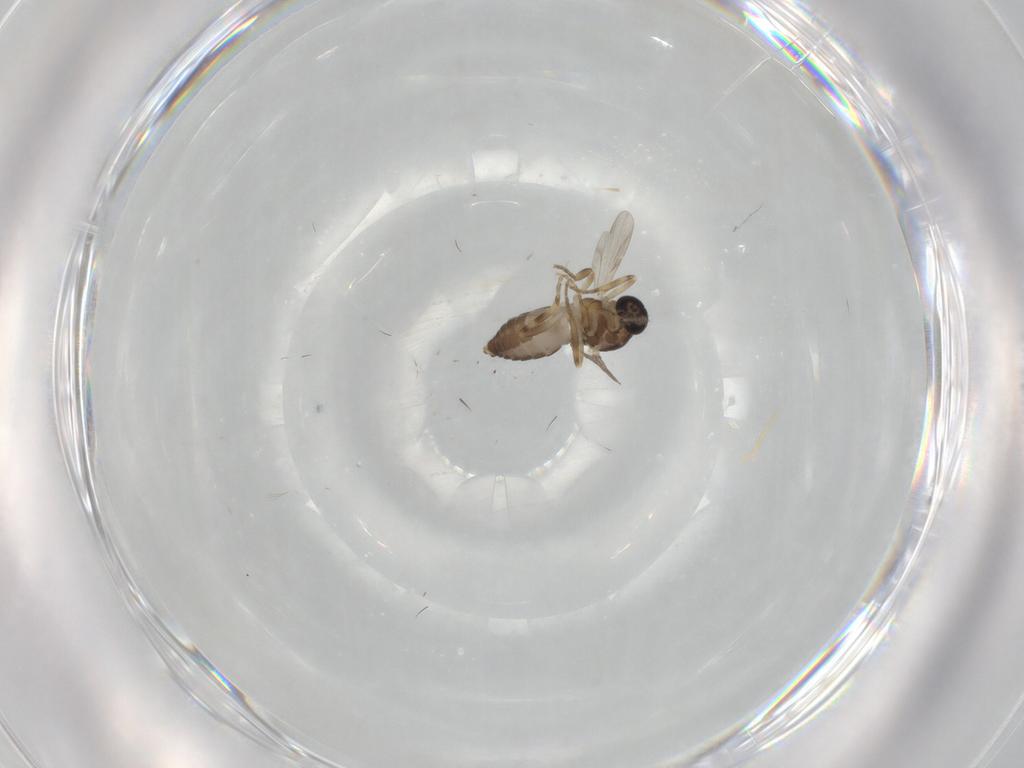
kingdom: Animalia
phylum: Arthropoda
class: Insecta
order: Diptera
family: Ceratopogonidae
